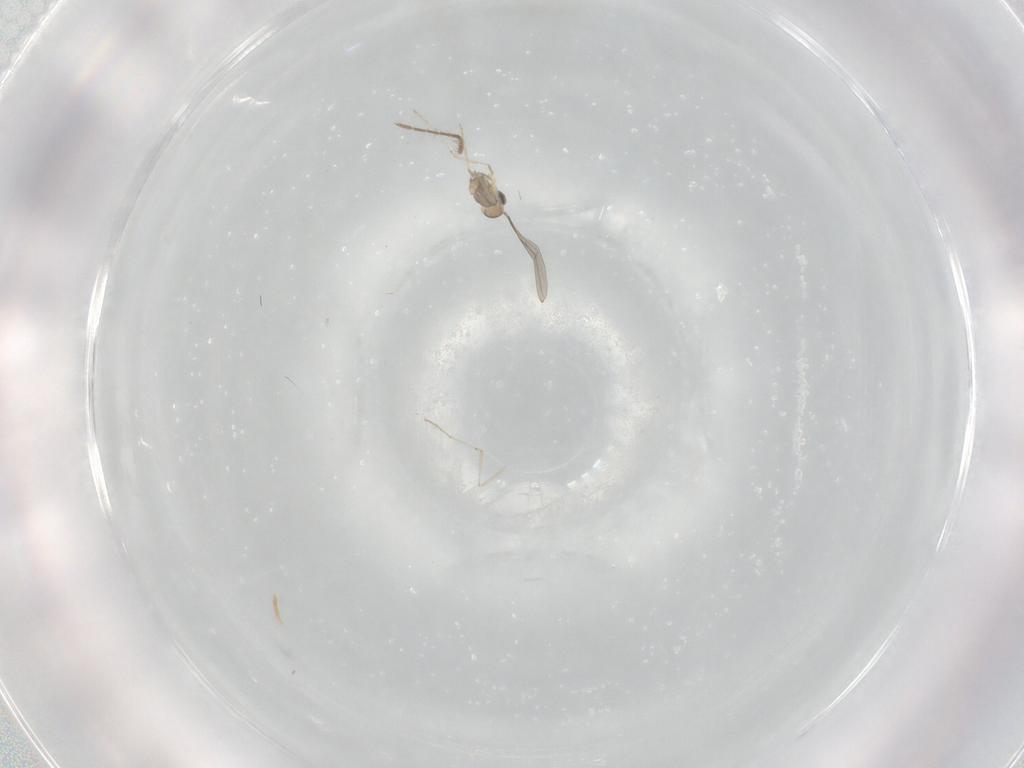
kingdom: Animalia
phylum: Arthropoda
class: Insecta
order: Diptera
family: Cecidomyiidae
